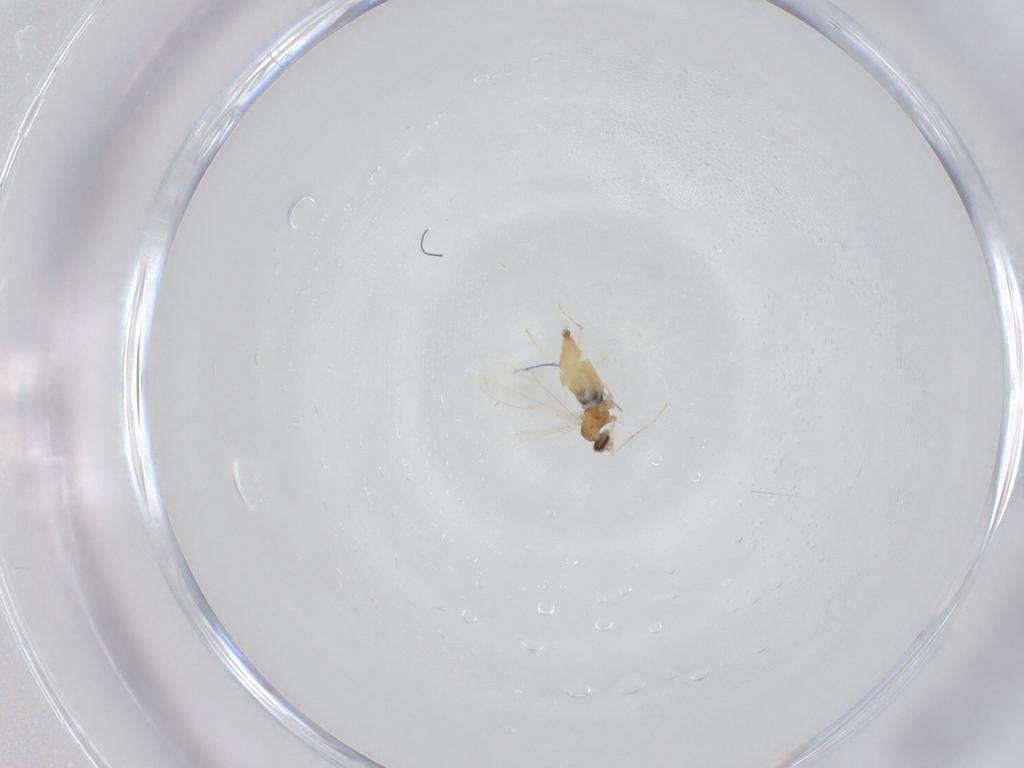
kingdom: Animalia
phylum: Arthropoda
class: Insecta
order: Diptera
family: Cecidomyiidae
